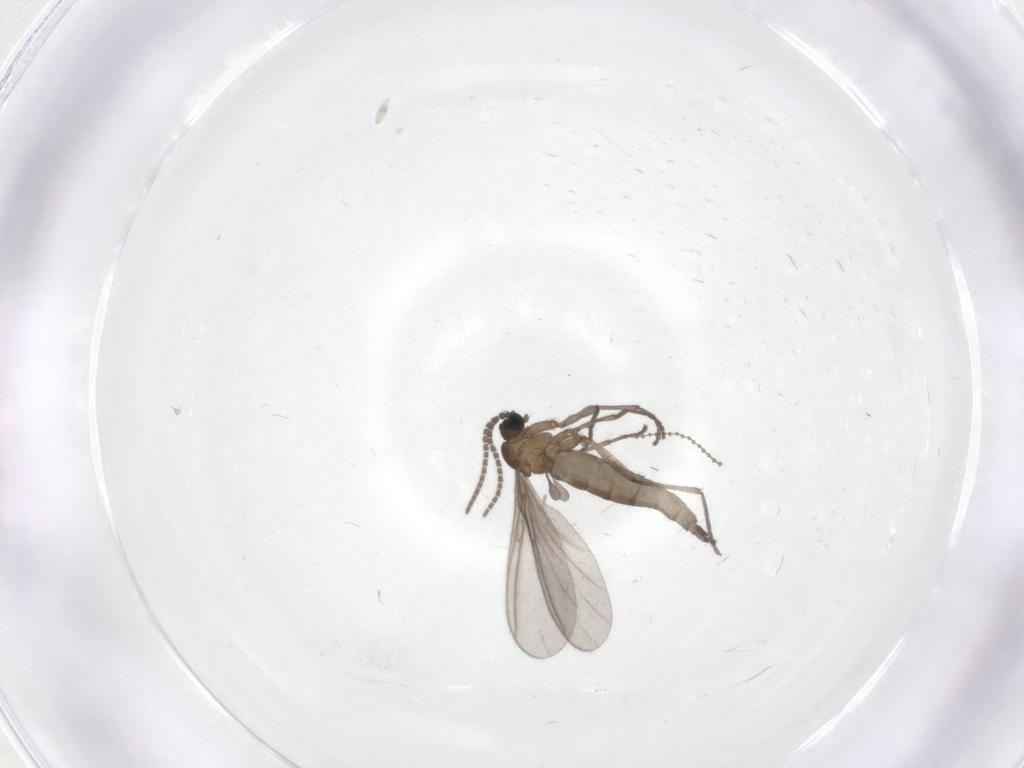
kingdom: Animalia
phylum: Arthropoda
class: Insecta
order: Diptera
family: Sciaridae
